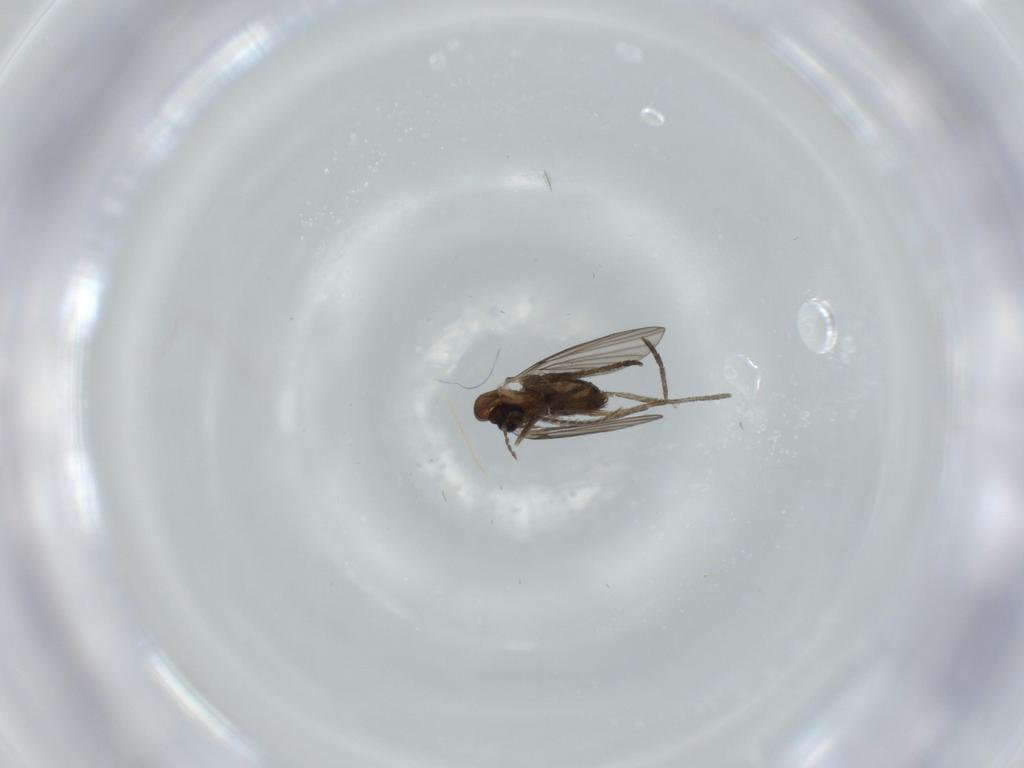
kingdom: Animalia
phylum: Arthropoda
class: Insecta
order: Diptera
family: Psychodidae
